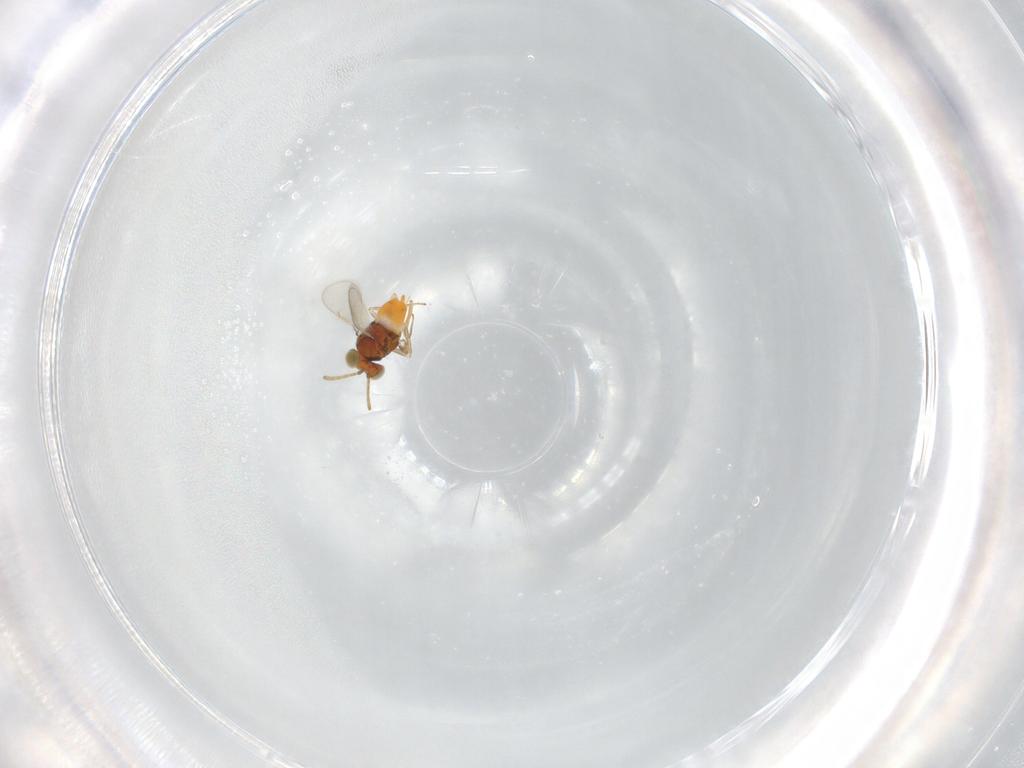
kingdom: Animalia
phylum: Arthropoda
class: Insecta
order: Hymenoptera
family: Aphelinidae
